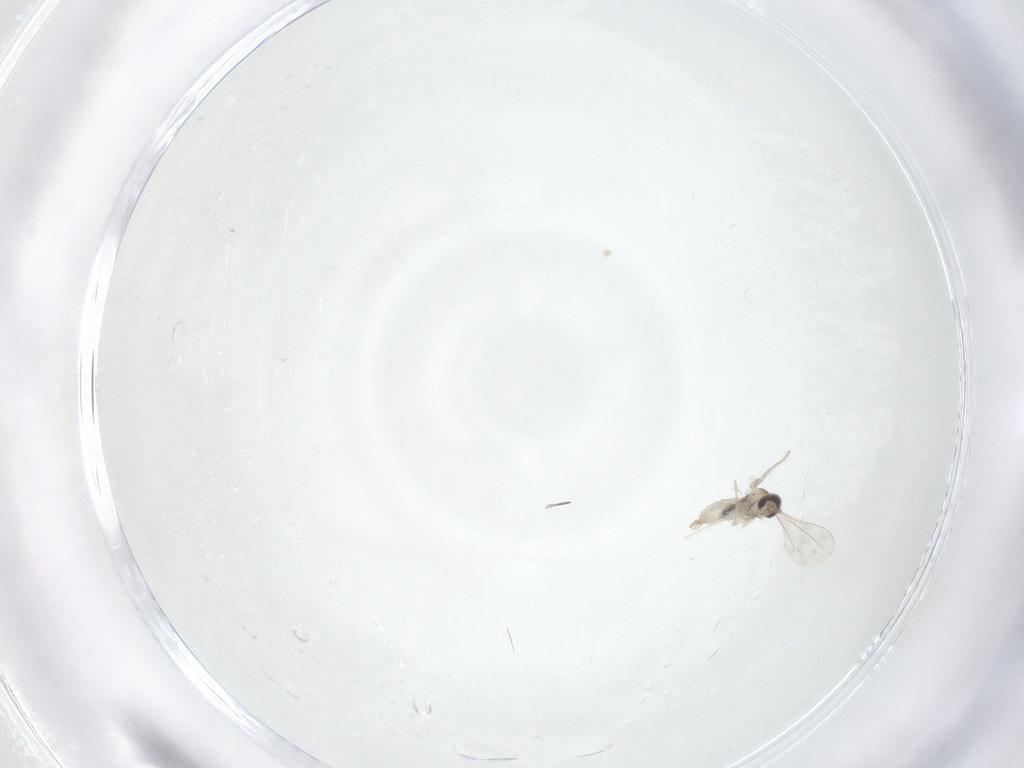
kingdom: Animalia
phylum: Arthropoda
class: Insecta
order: Diptera
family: Cecidomyiidae
